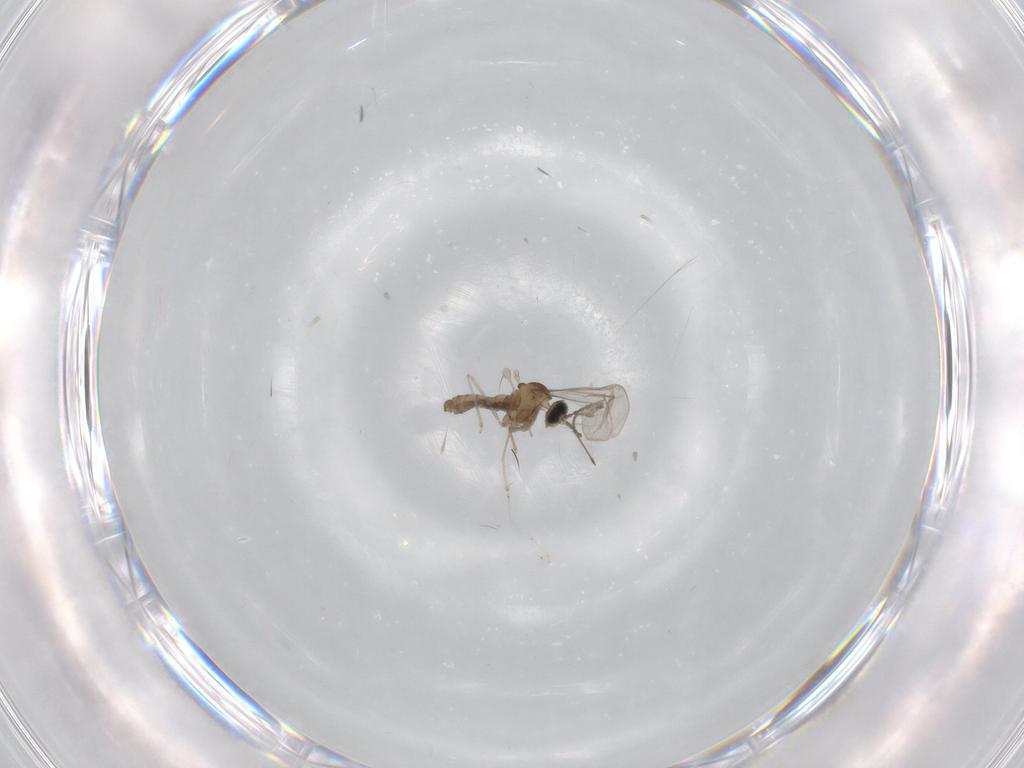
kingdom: Animalia
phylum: Arthropoda
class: Insecta
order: Diptera
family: Cecidomyiidae
